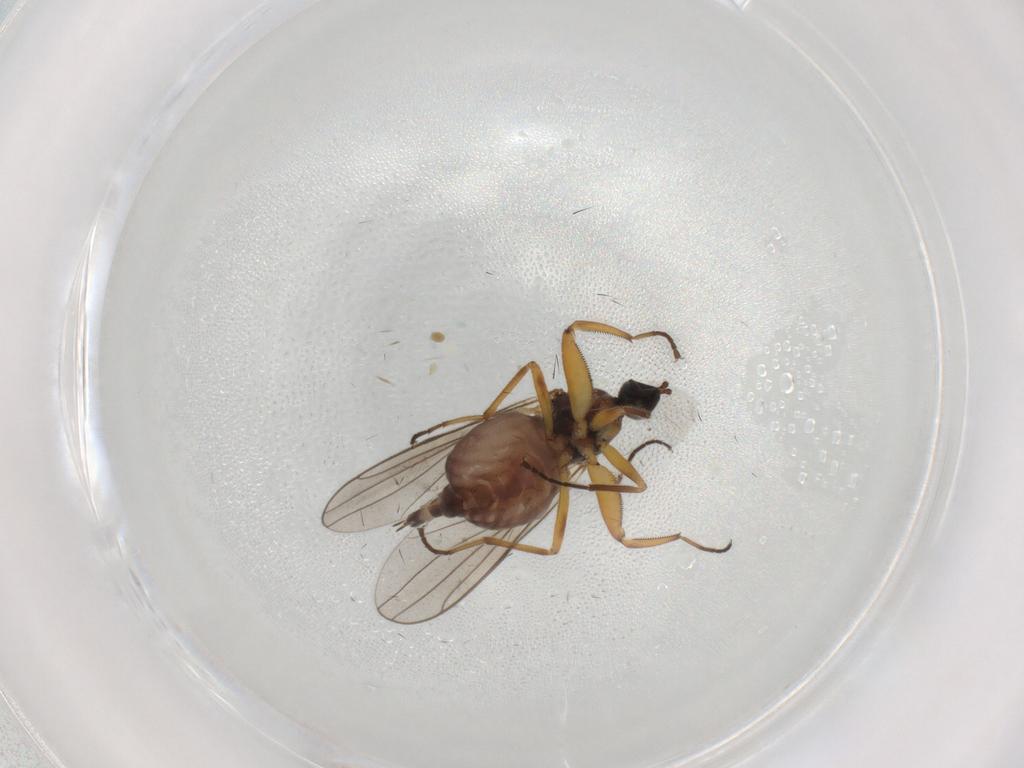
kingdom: Animalia
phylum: Arthropoda
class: Insecta
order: Diptera
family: Hybotidae
